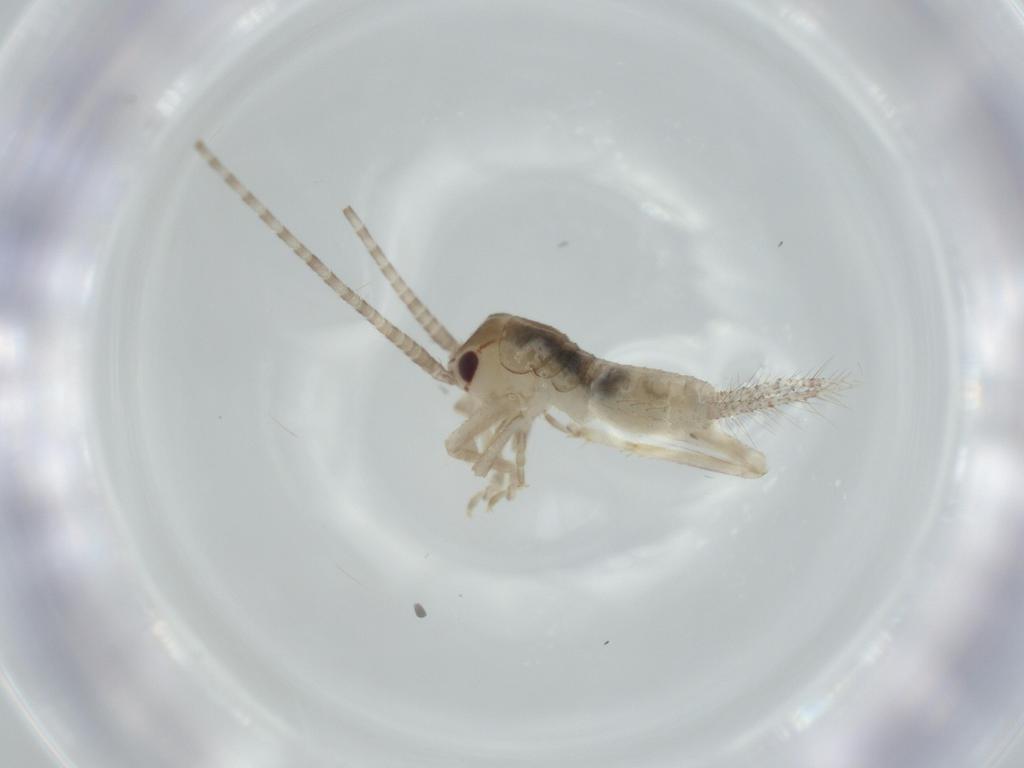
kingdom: Animalia
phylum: Arthropoda
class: Insecta
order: Orthoptera
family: Gryllidae
